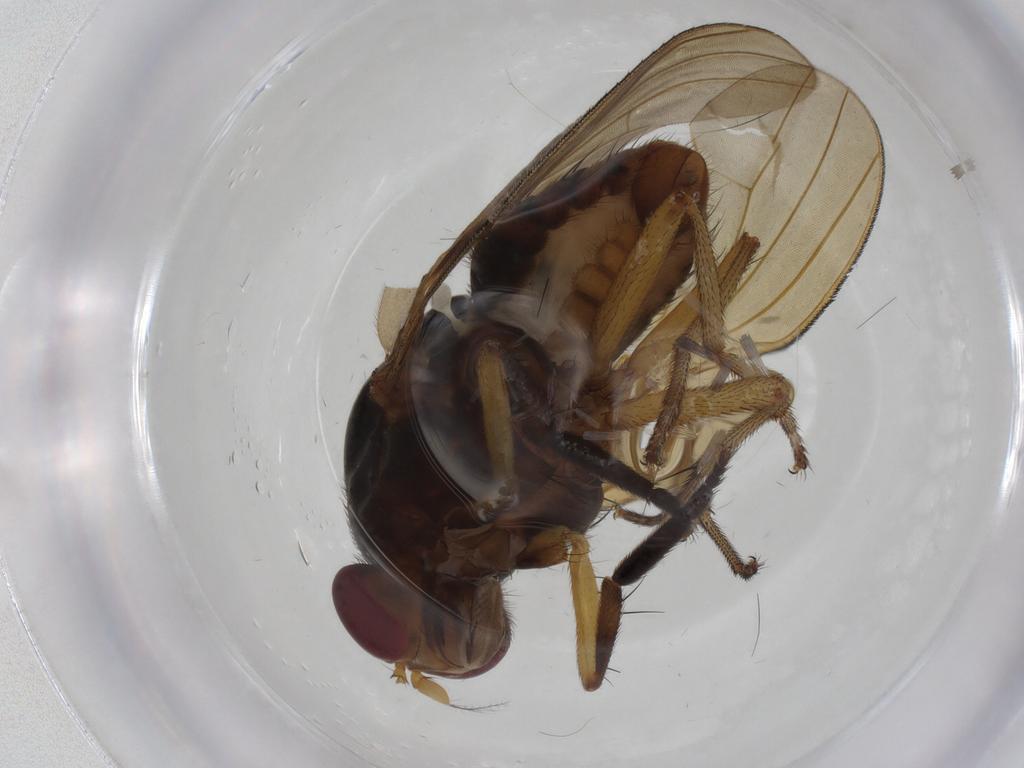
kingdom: Animalia
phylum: Arthropoda
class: Insecta
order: Diptera
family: Chironomidae
